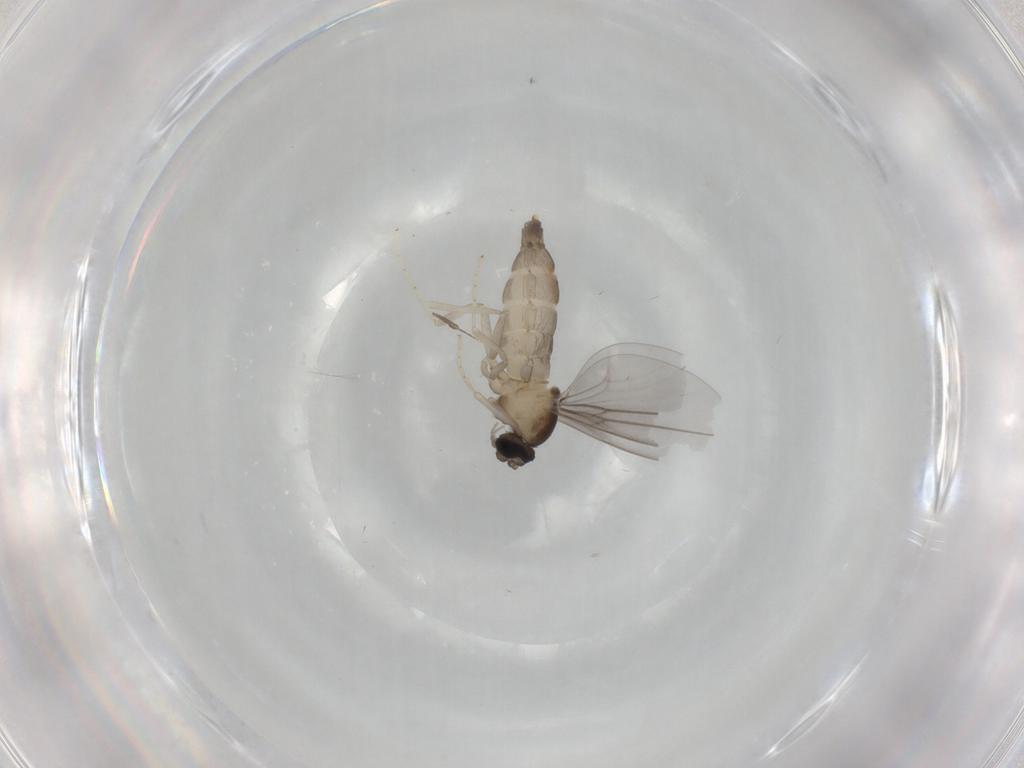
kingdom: Animalia
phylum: Arthropoda
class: Insecta
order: Diptera
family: Cecidomyiidae
